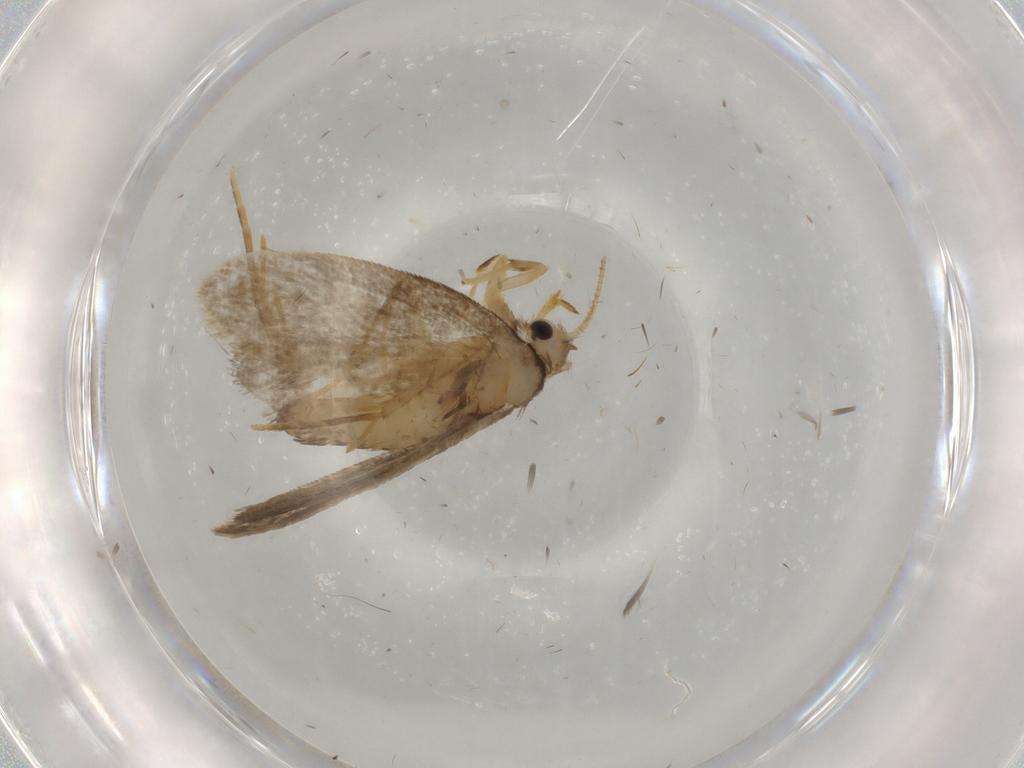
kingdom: Animalia
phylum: Arthropoda
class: Insecta
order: Lepidoptera
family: Psychidae
